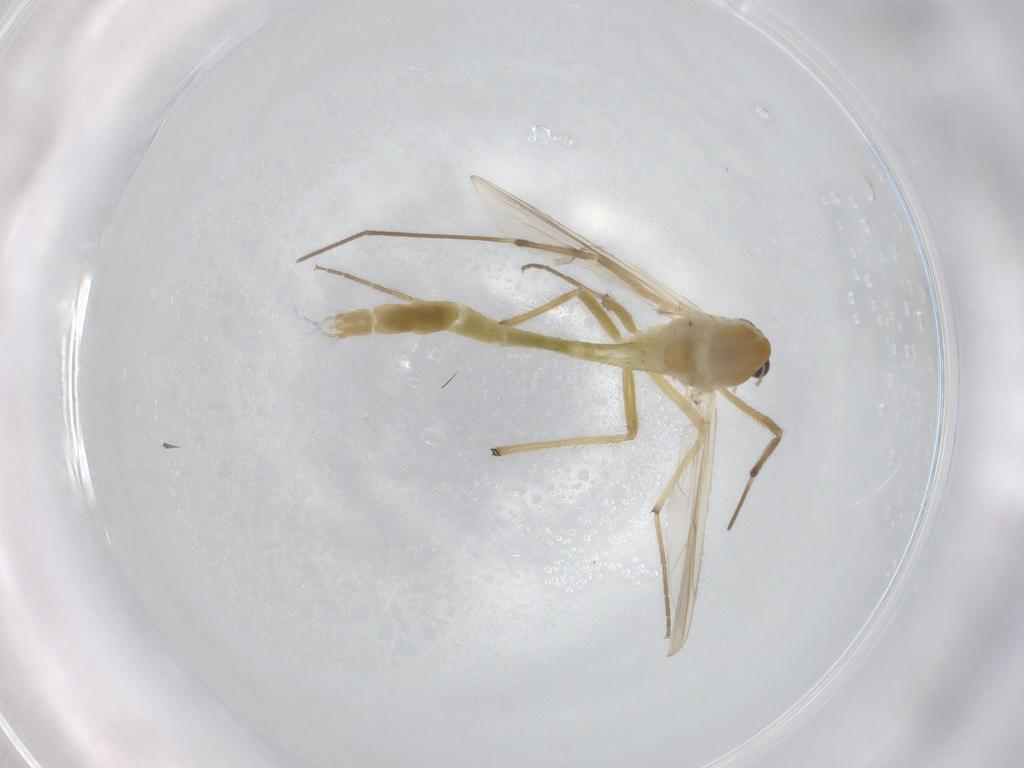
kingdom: Animalia
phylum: Arthropoda
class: Insecta
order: Diptera
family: Chironomidae
